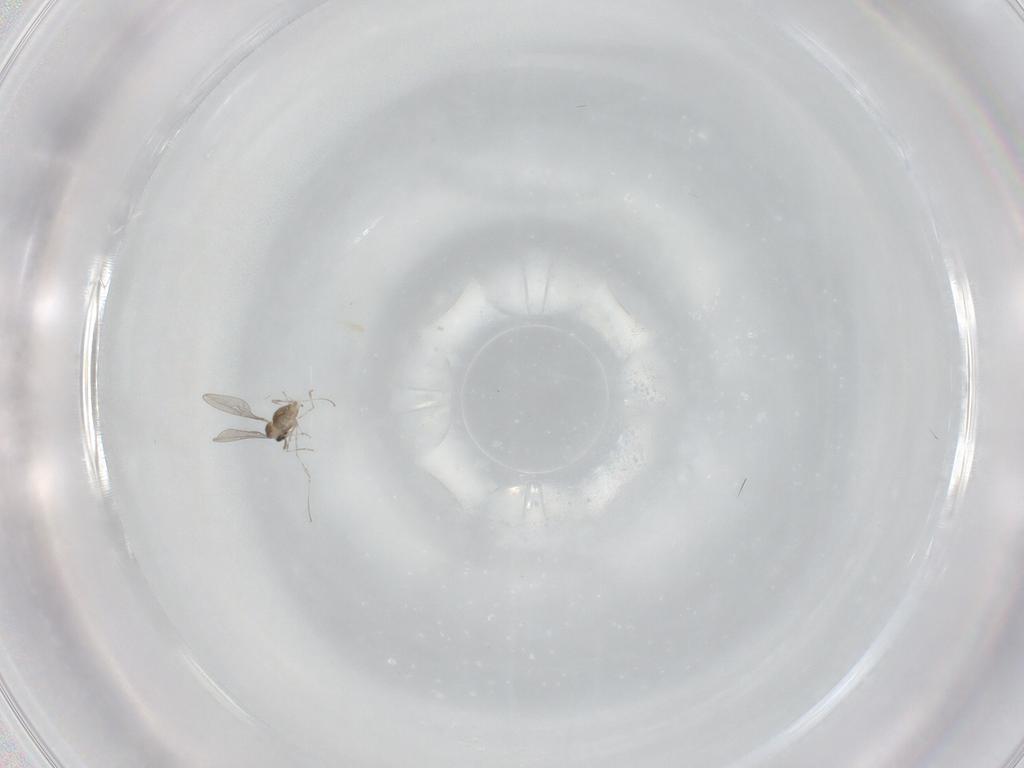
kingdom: Animalia
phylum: Arthropoda
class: Insecta
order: Diptera
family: Cecidomyiidae
